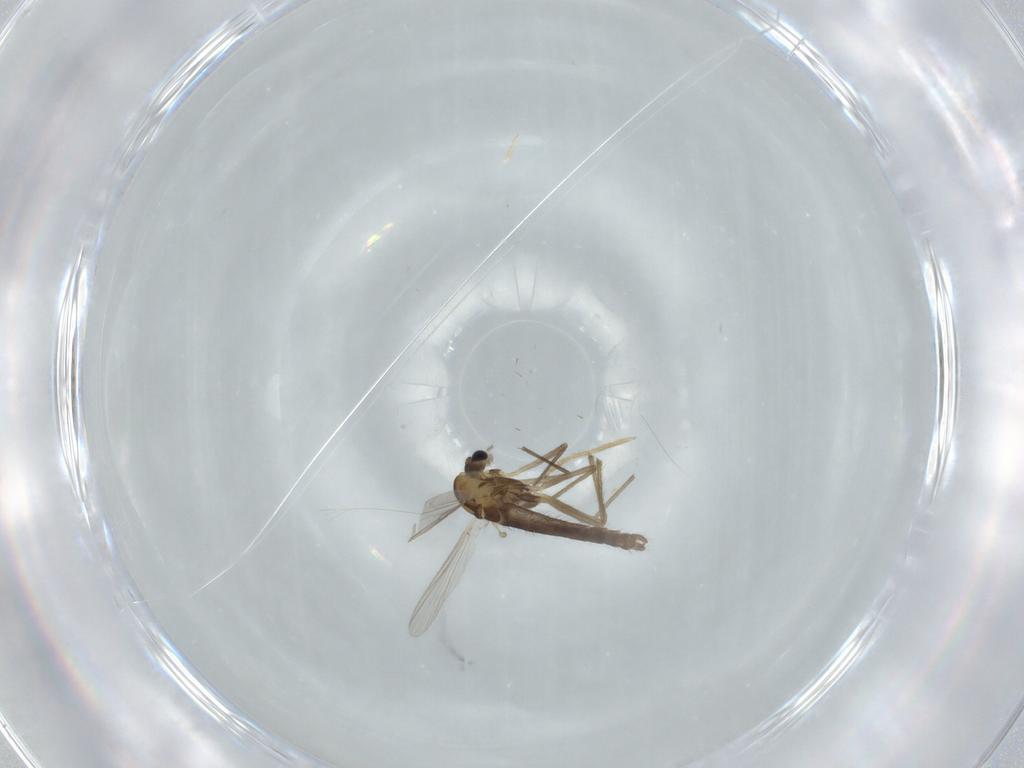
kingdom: Animalia
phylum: Arthropoda
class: Insecta
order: Diptera
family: Chironomidae
